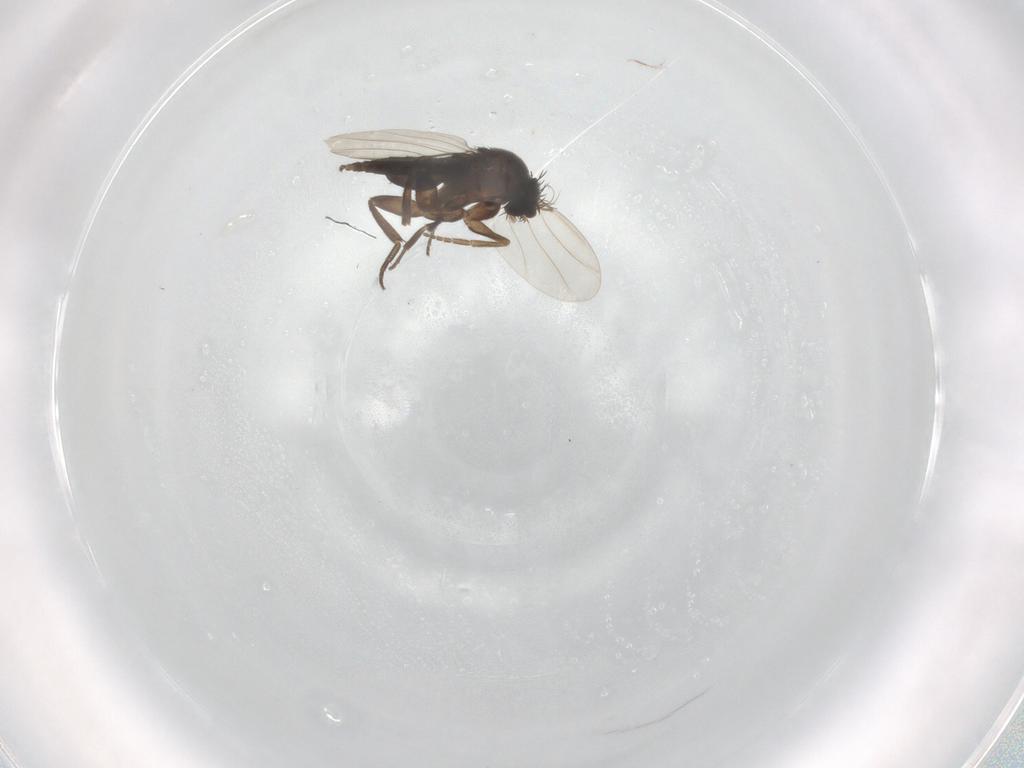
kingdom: Animalia
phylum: Arthropoda
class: Insecta
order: Diptera
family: Phoridae
